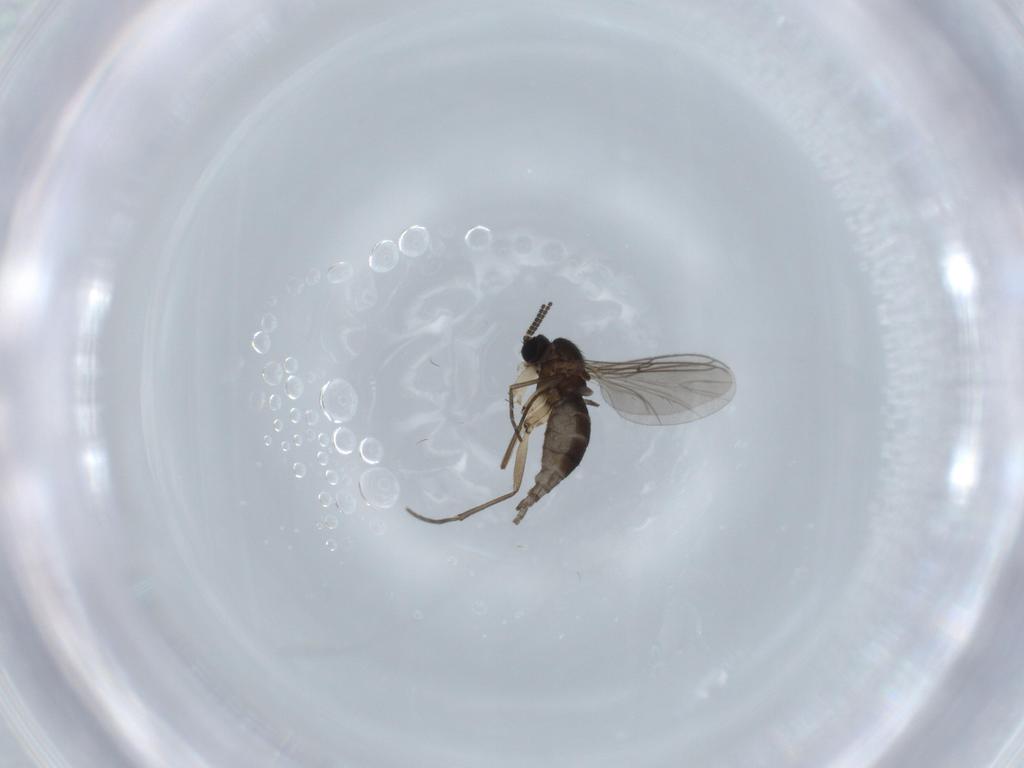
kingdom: Animalia
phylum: Arthropoda
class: Insecta
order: Diptera
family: Sciaridae
